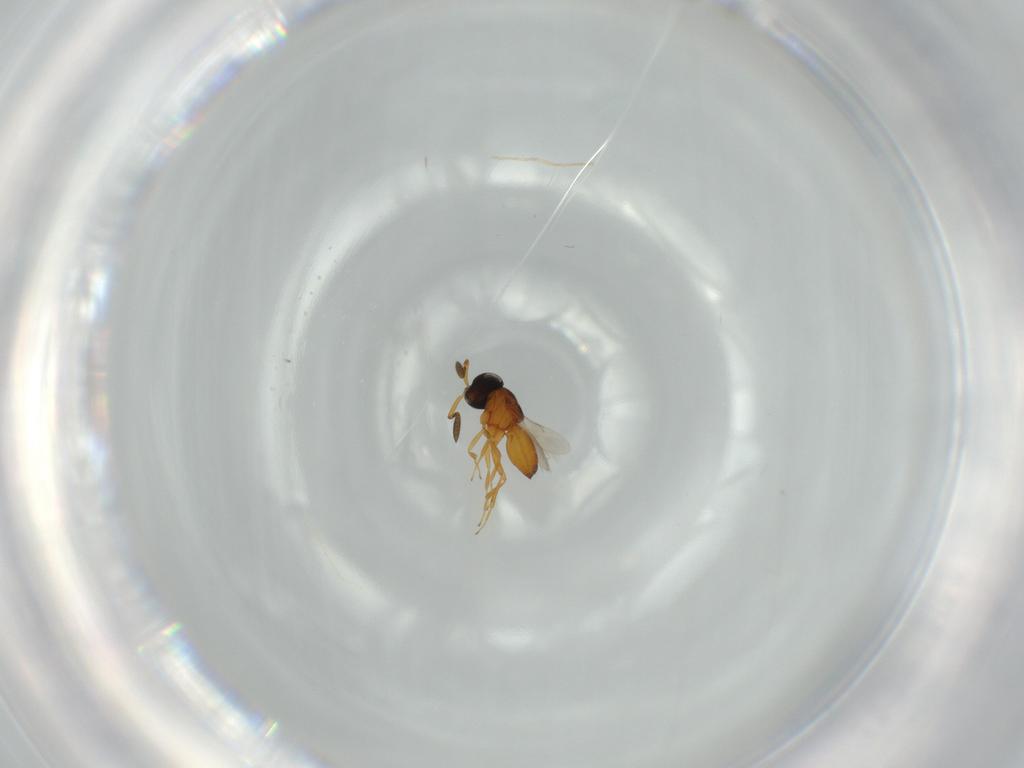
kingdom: Animalia
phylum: Arthropoda
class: Insecta
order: Hymenoptera
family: Scelionidae
